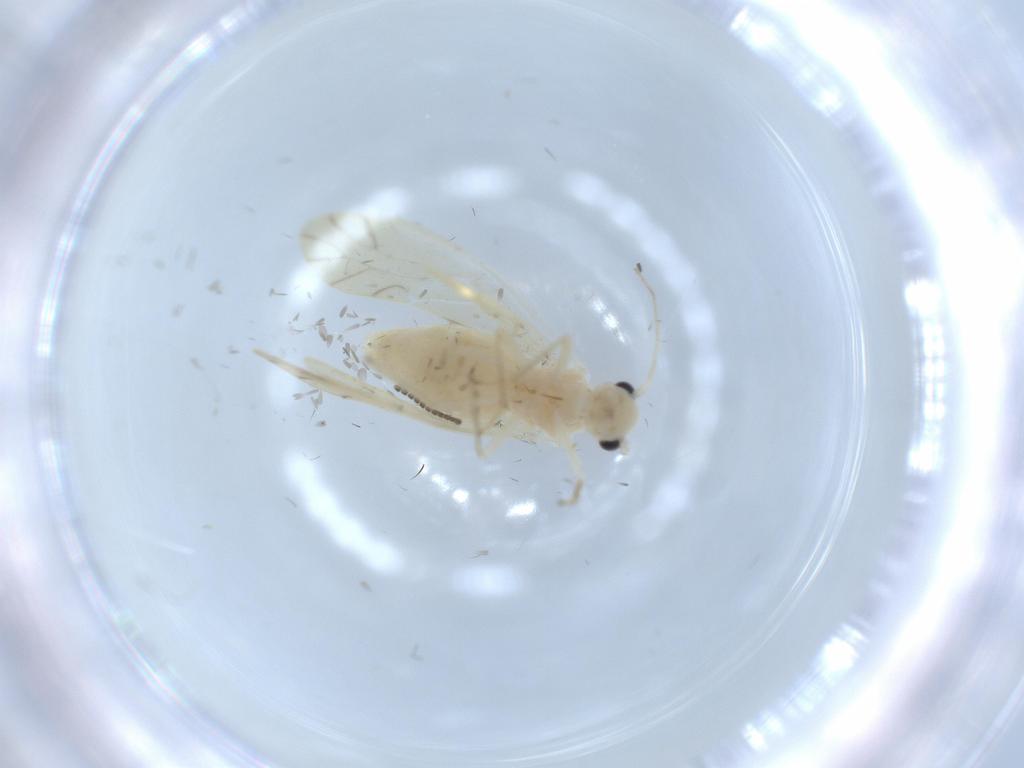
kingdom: Animalia
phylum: Arthropoda
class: Insecta
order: Psocodea
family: Caeciliusidae
